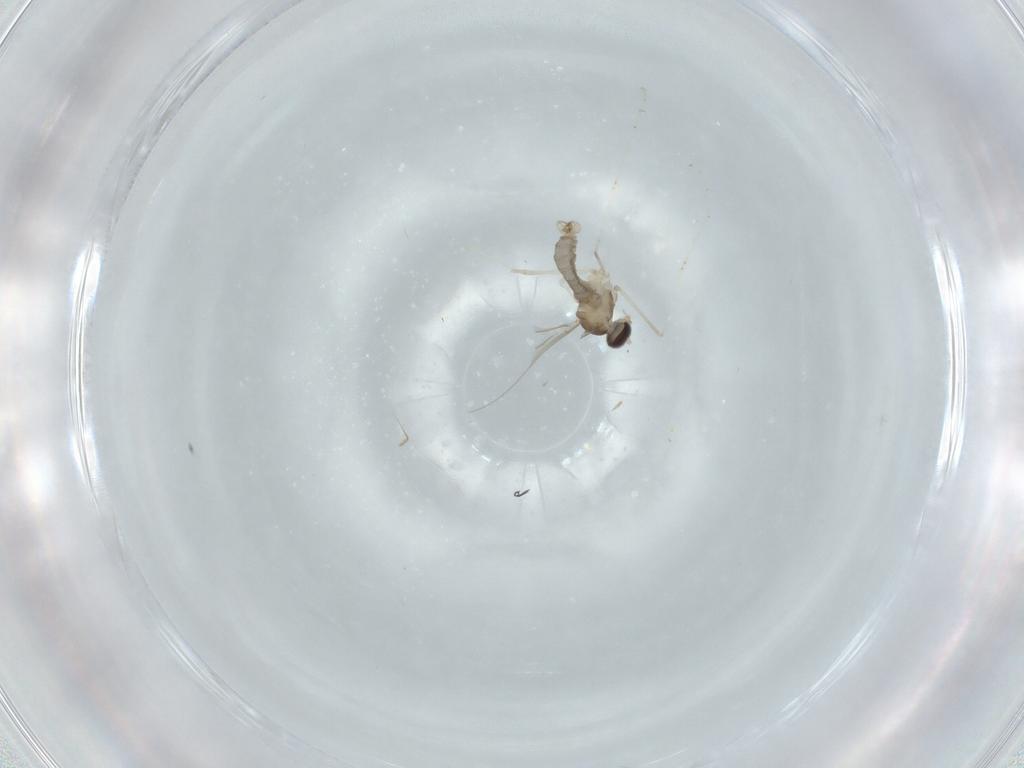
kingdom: Animalia
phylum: Arthropoda
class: Insecta
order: Diptera
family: Cecidomyiidae
